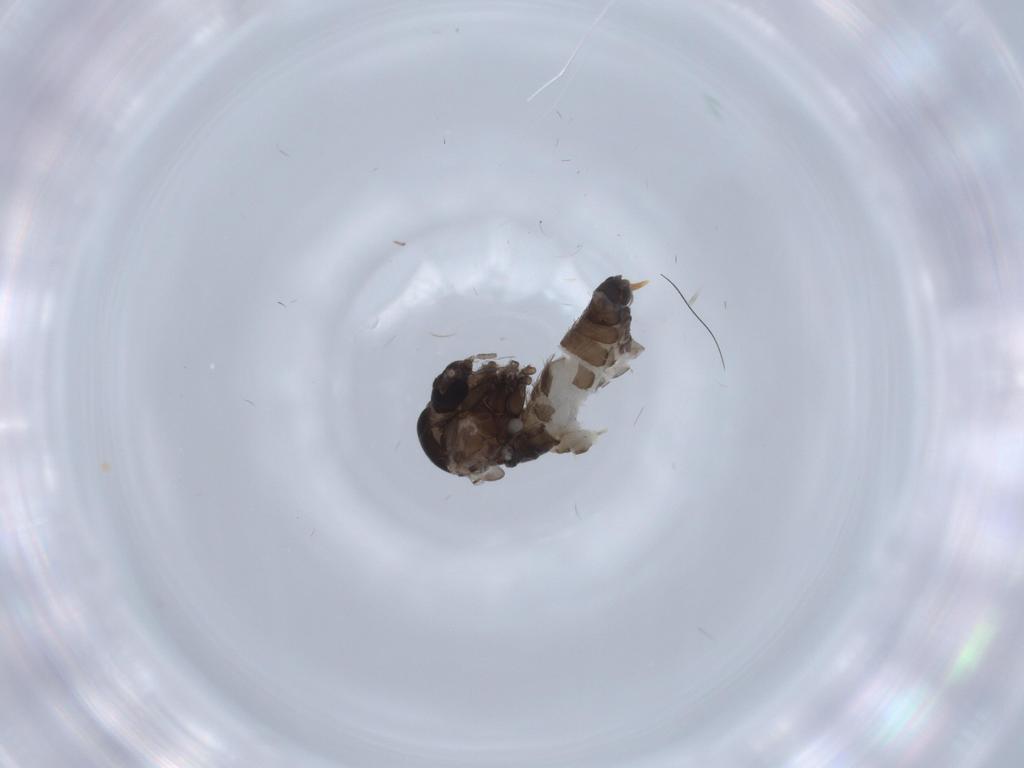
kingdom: Animalia
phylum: Arthropoda
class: Insecta
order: Diptera
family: Psychodidae
